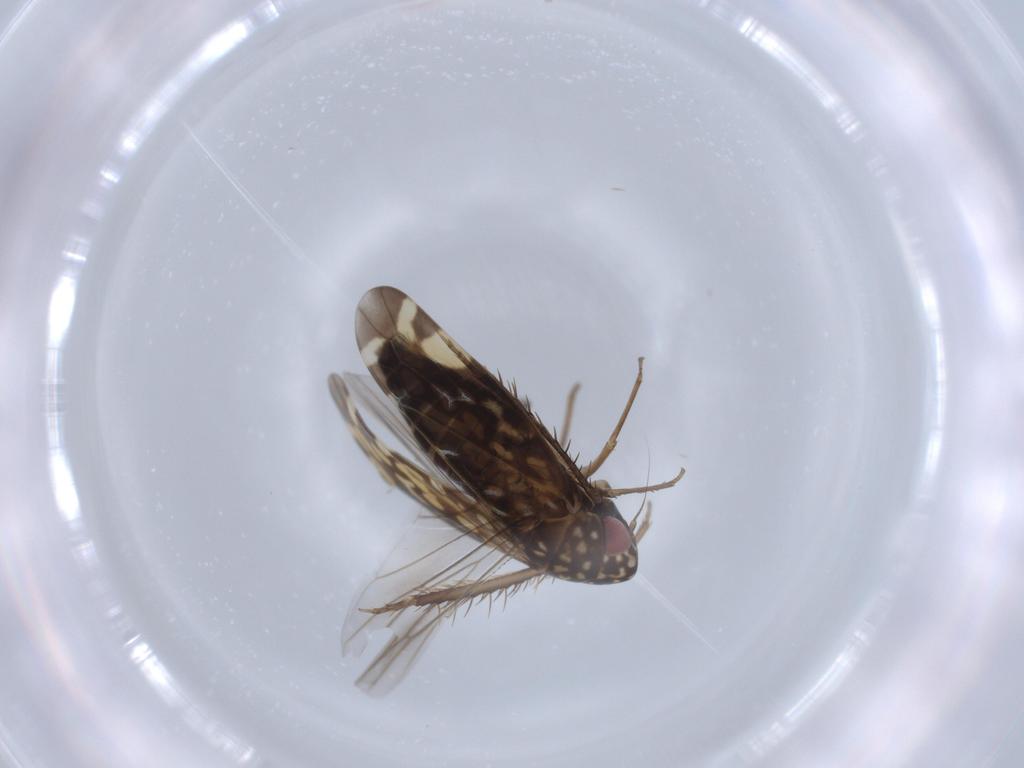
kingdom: Animalia
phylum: Arthropoda
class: Insecta
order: Hemiptera
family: Cicadellidae
